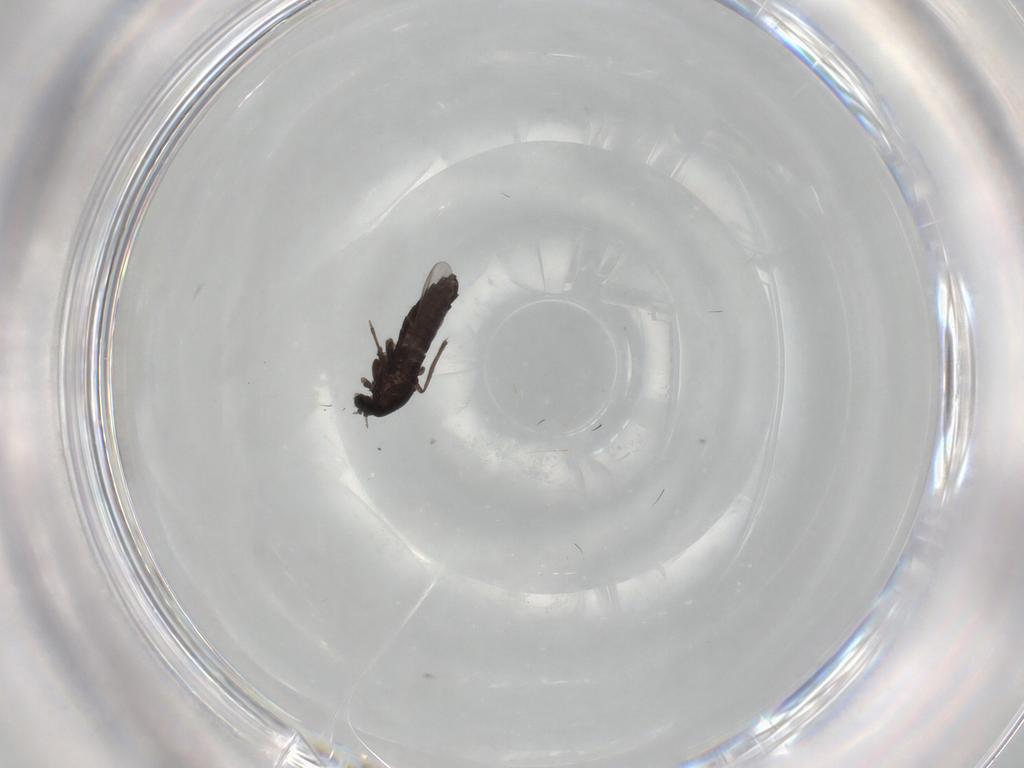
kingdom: Animalia
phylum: Arthropoda
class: Insecta
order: Diptera
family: Chironomidae
